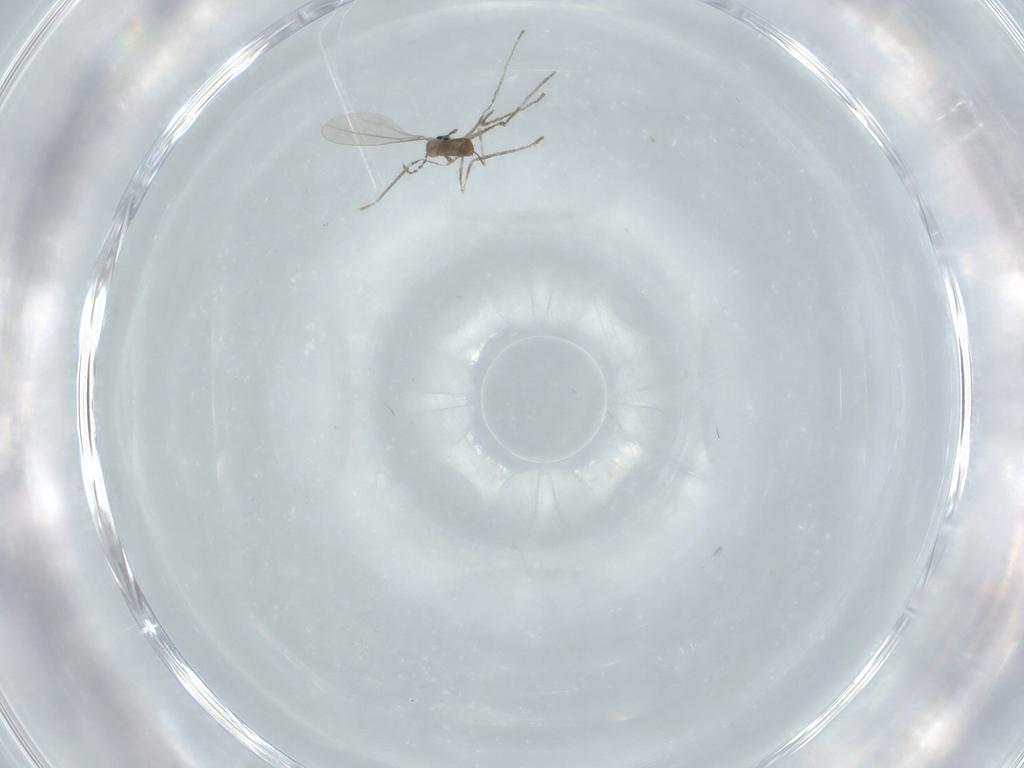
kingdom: Animalia
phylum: Arthropoda
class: Insecta
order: Diptera
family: Cecidomyiidae
